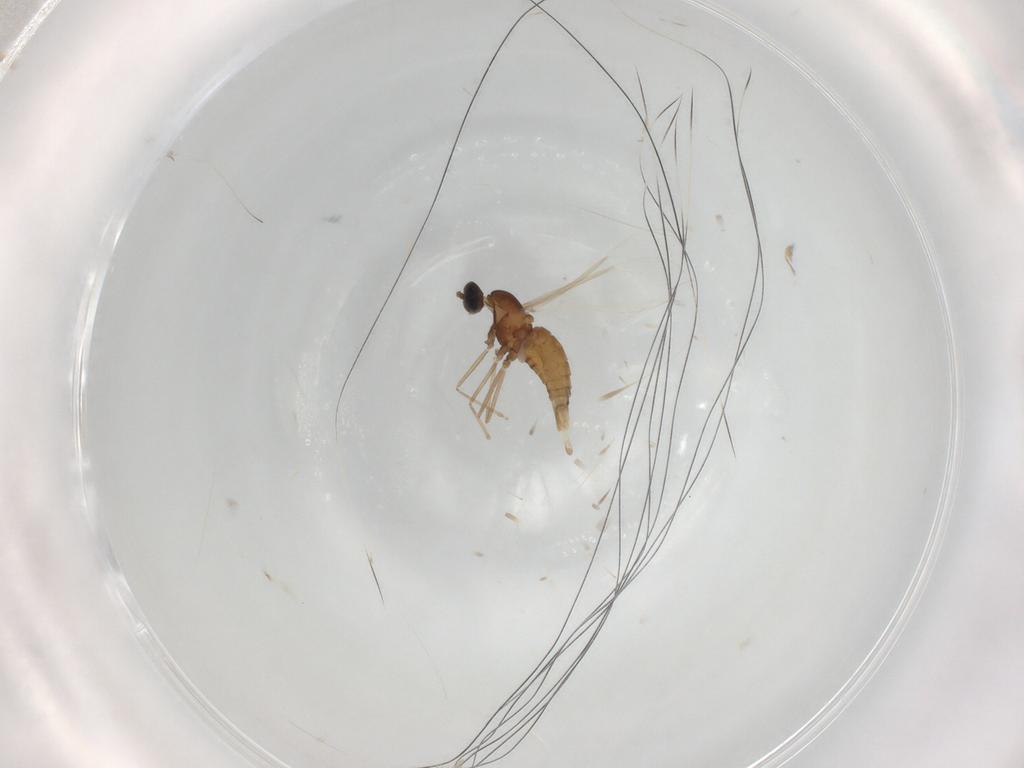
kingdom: Animalia
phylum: Arthropoda
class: Insecta
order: Diptera
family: Cecidomyiidae
